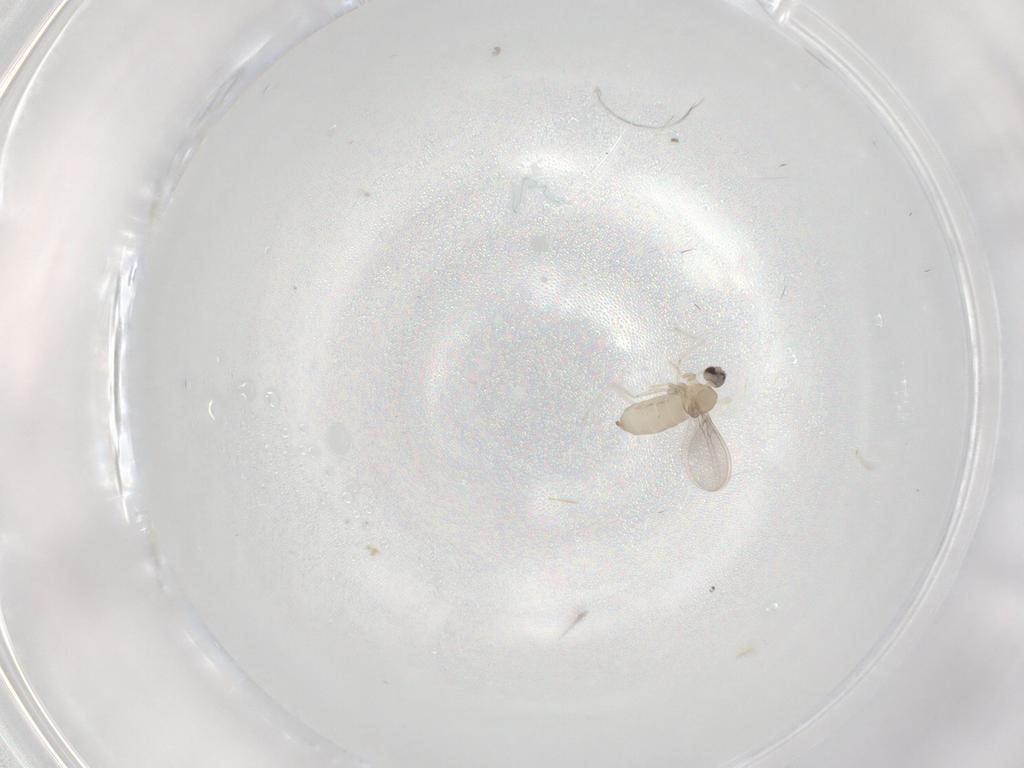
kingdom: Animalia
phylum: Arthropoda
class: Insecta
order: Diptera
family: Cecidomyiidae
